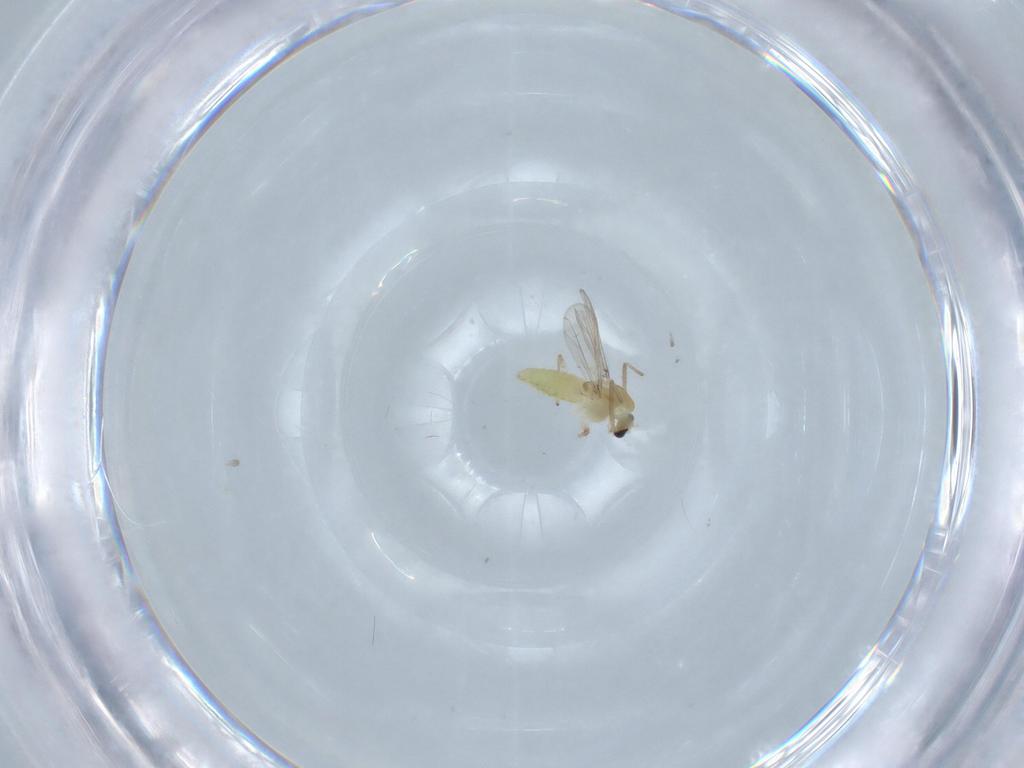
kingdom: Animalia
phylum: Arthropoda
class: Insecta
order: Diptera
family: Chironomidae
